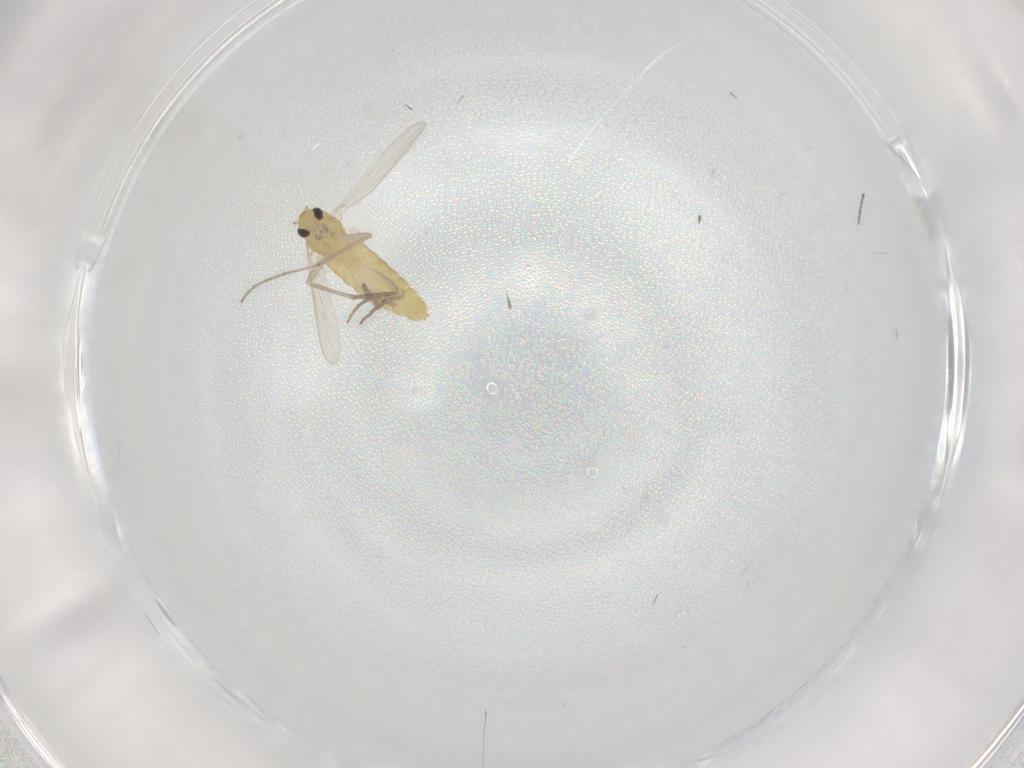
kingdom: Animalia
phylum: Arthropoda
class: Insecta
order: Diptera
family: Chironomidae
